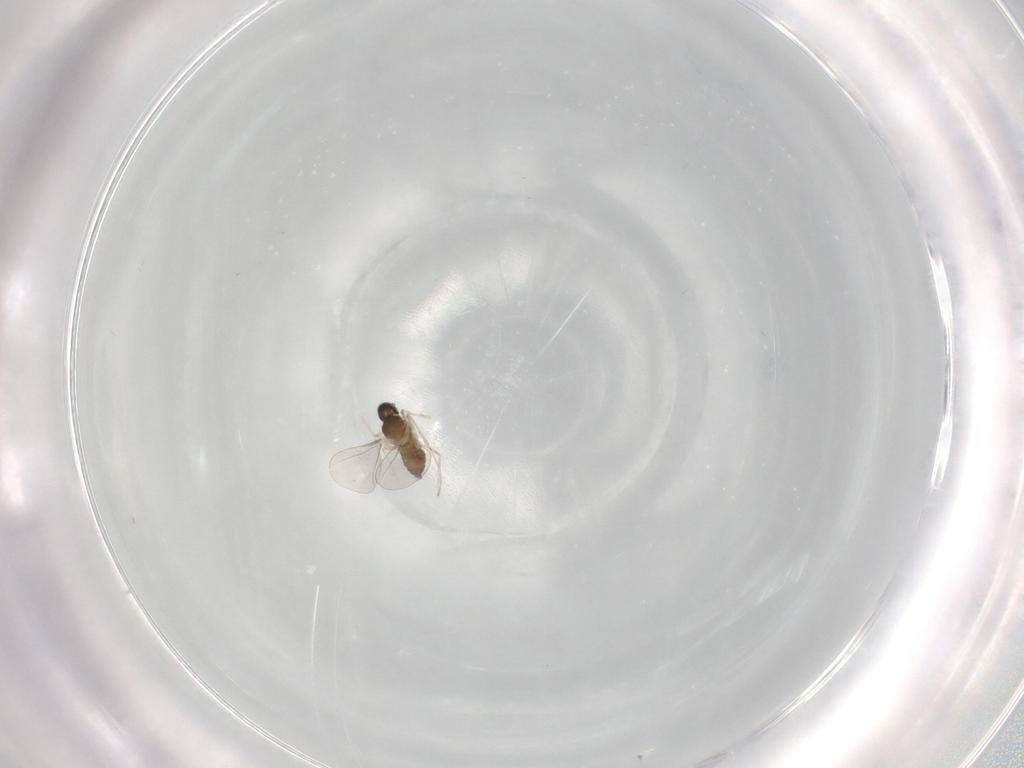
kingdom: Animalia
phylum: Arthropoda
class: Insecta
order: Diptera
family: Cecidomyiidae
